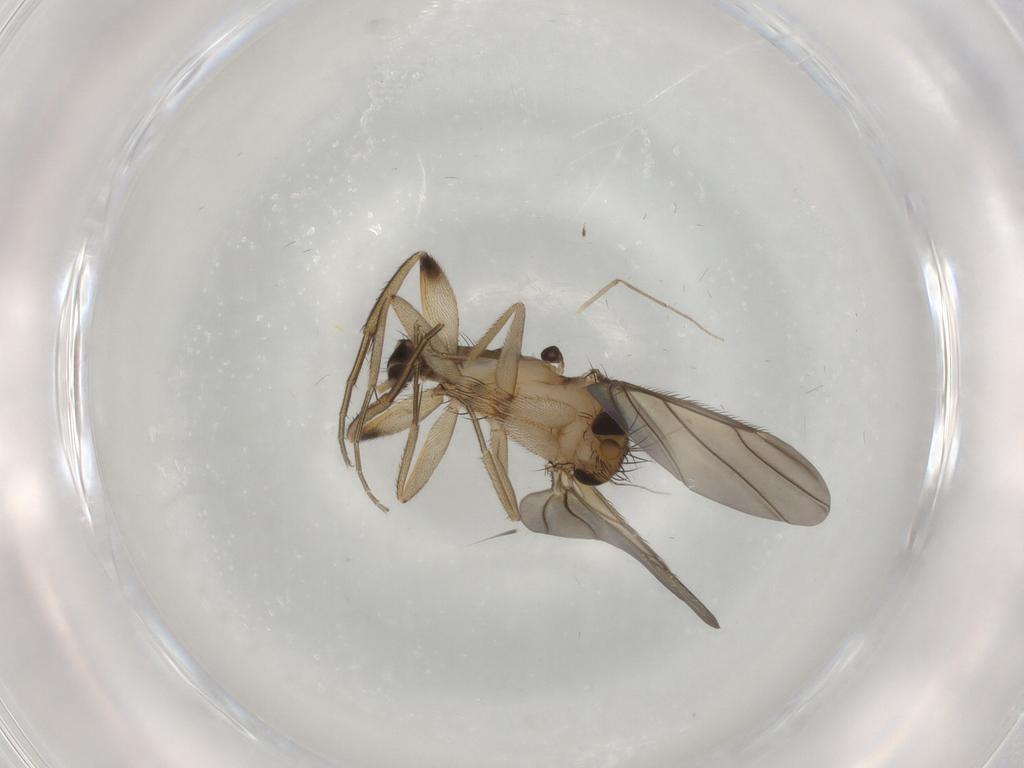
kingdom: Animalia
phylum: Arthropoda
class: Insecta
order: Diptera
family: Phoridae
